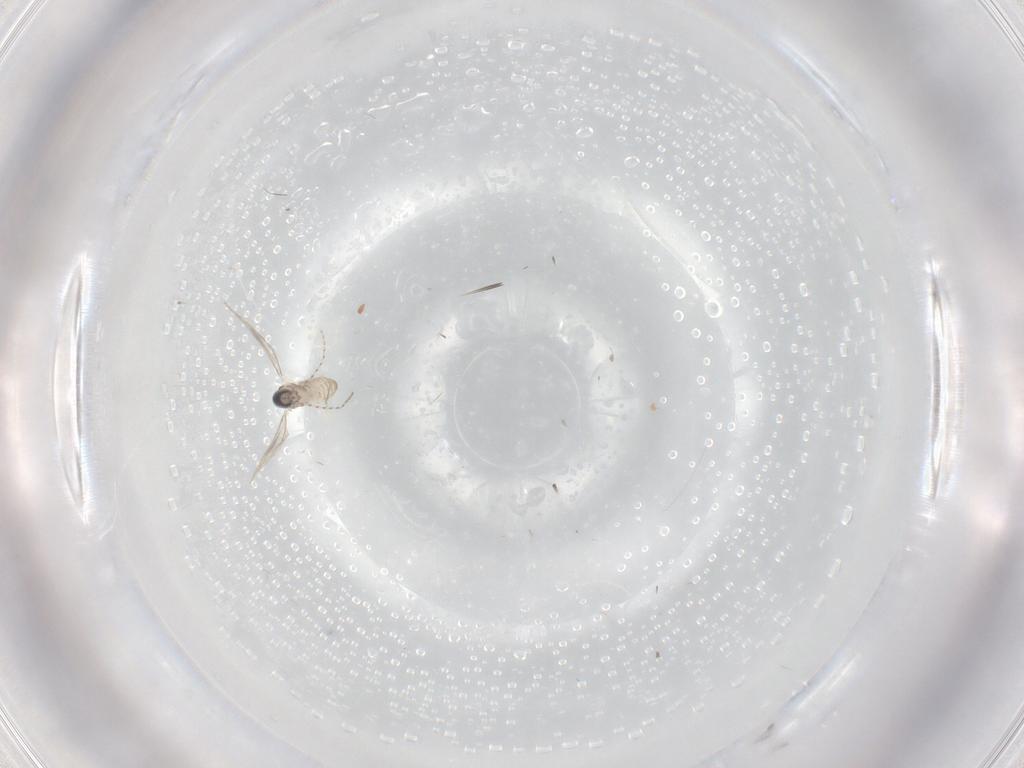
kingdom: Animalia
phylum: Arthropoda
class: Insecta
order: Diptera
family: Cecidomyiidae
